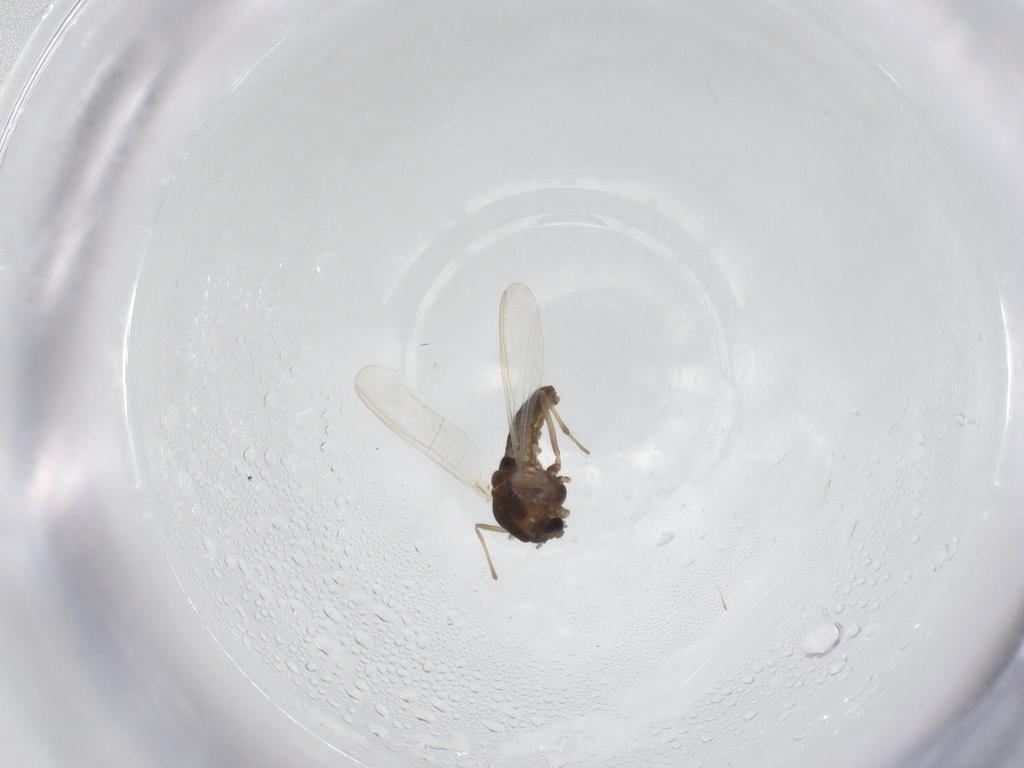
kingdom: Animalia
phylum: Arthropoda
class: Insecta
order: Diptera
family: Chironomidae
